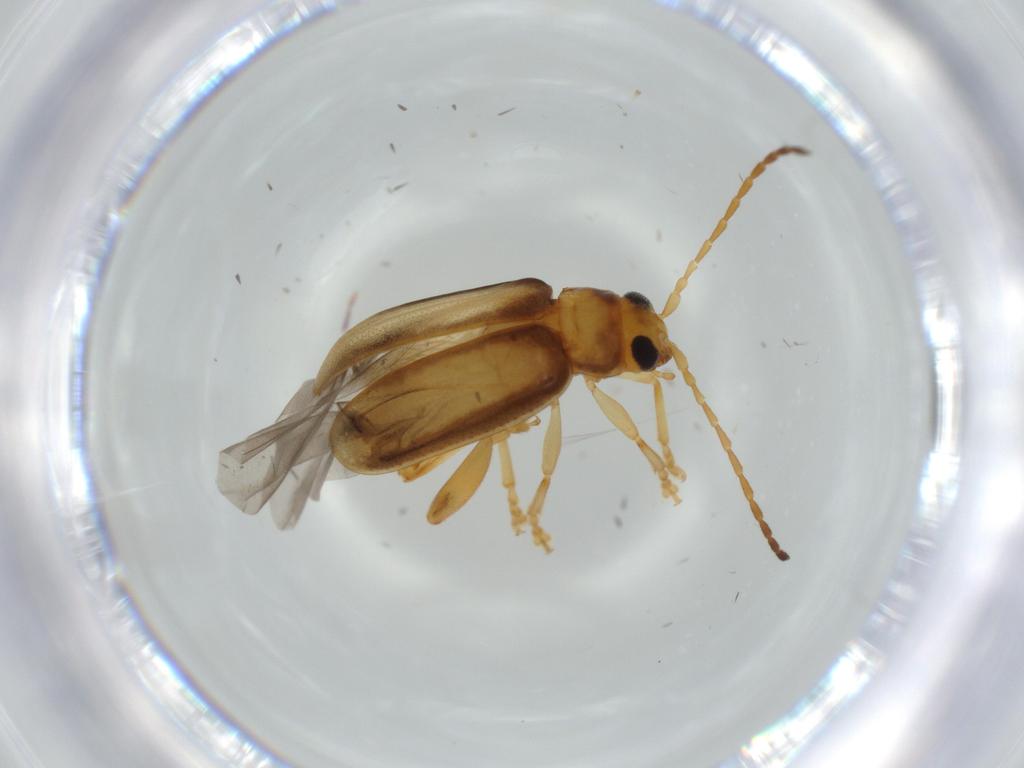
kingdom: Animalia
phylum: Arthropoda
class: Insecta
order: Coleoptera
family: Chrysomelidae
